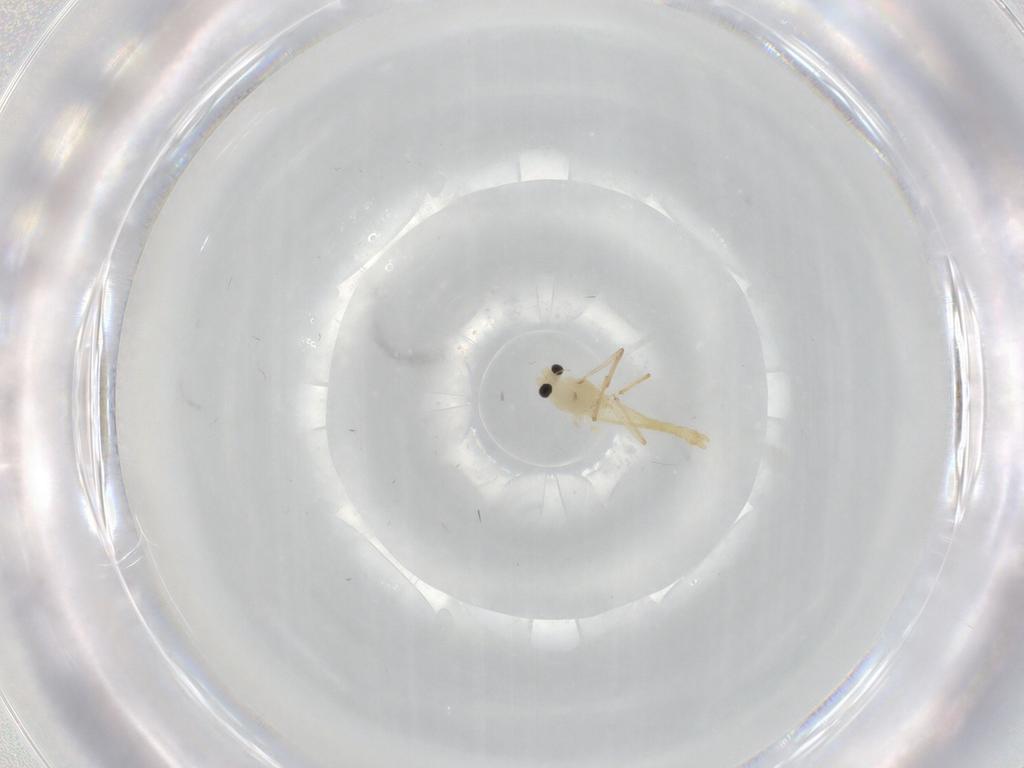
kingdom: Animalia
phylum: Arthropoda
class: Insecta
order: Diptera
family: Chironomidae
